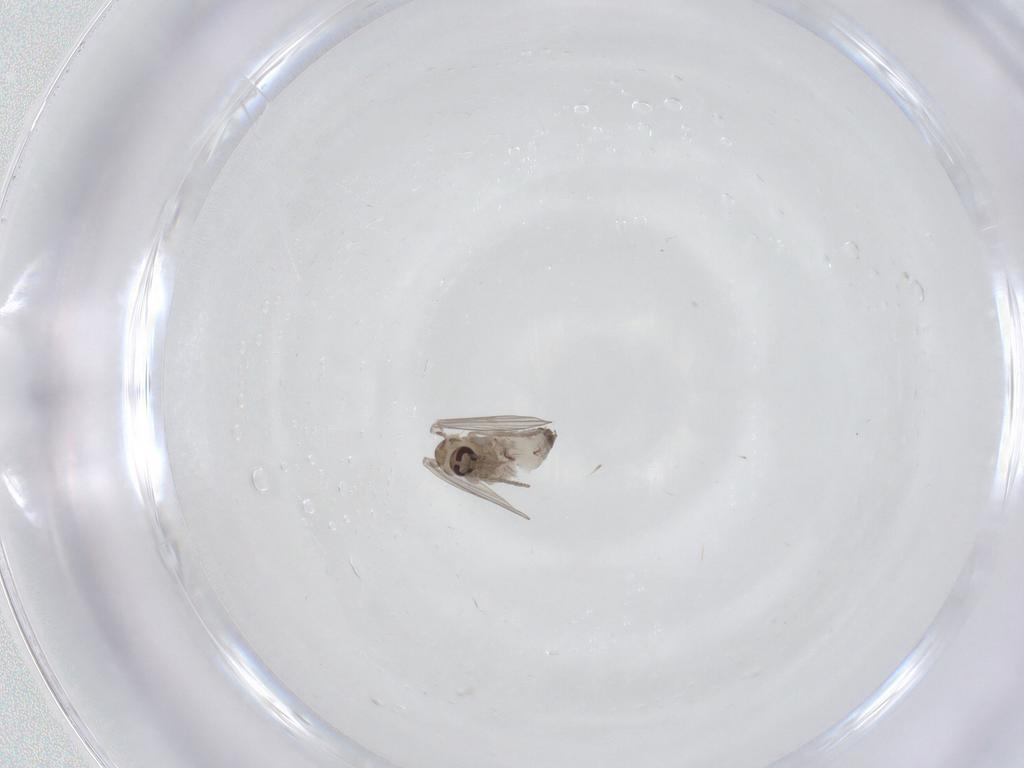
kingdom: Animalia
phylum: Arthropoda
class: Insecta
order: Diptera
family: Psychodidae
